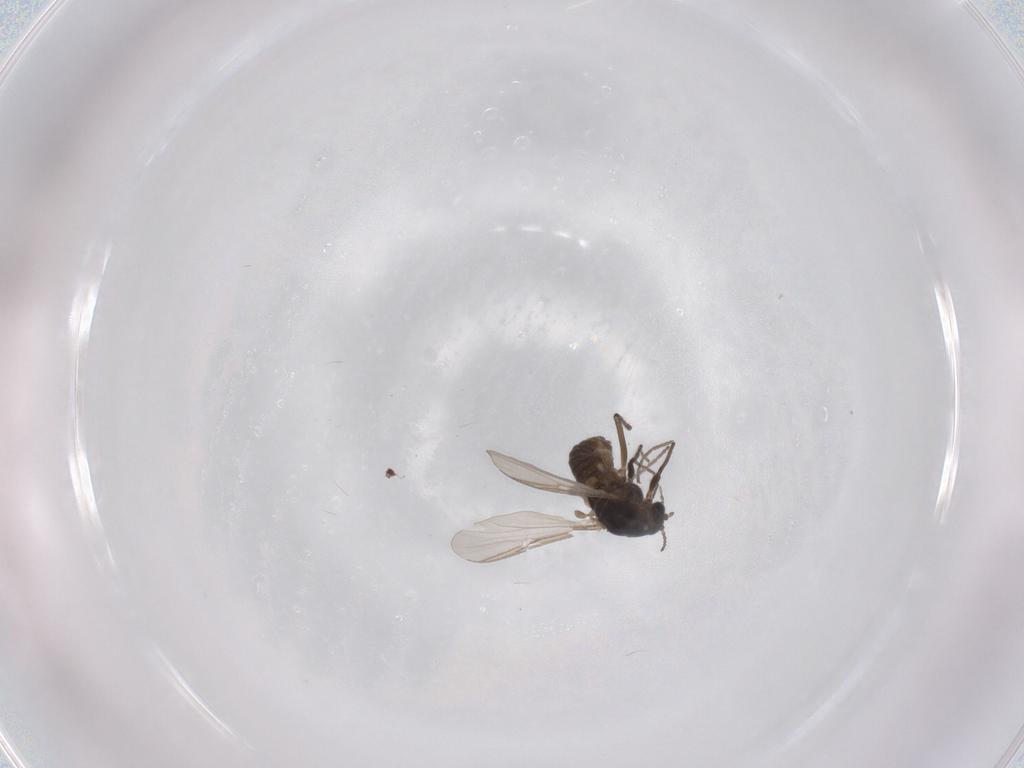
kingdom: Animalia
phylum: Arthropoda
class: Insecta
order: Diptera
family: Chironomidae
